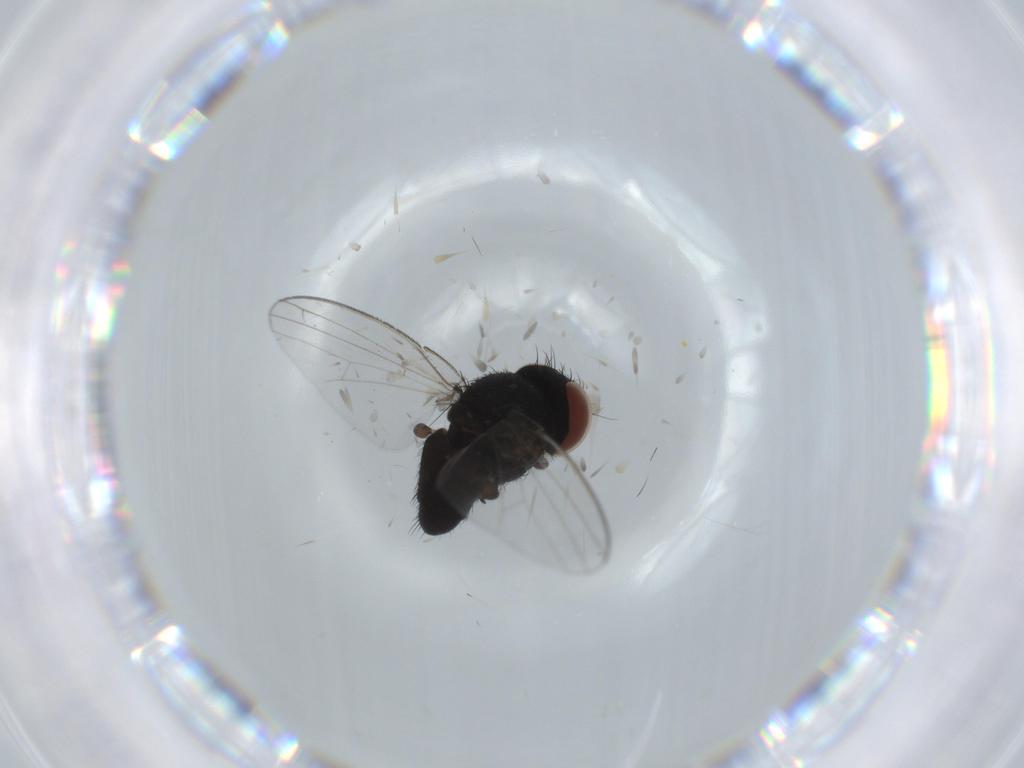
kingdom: Animalia
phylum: Arthropoda
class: Insecta
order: Diptera
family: Milichiidae
